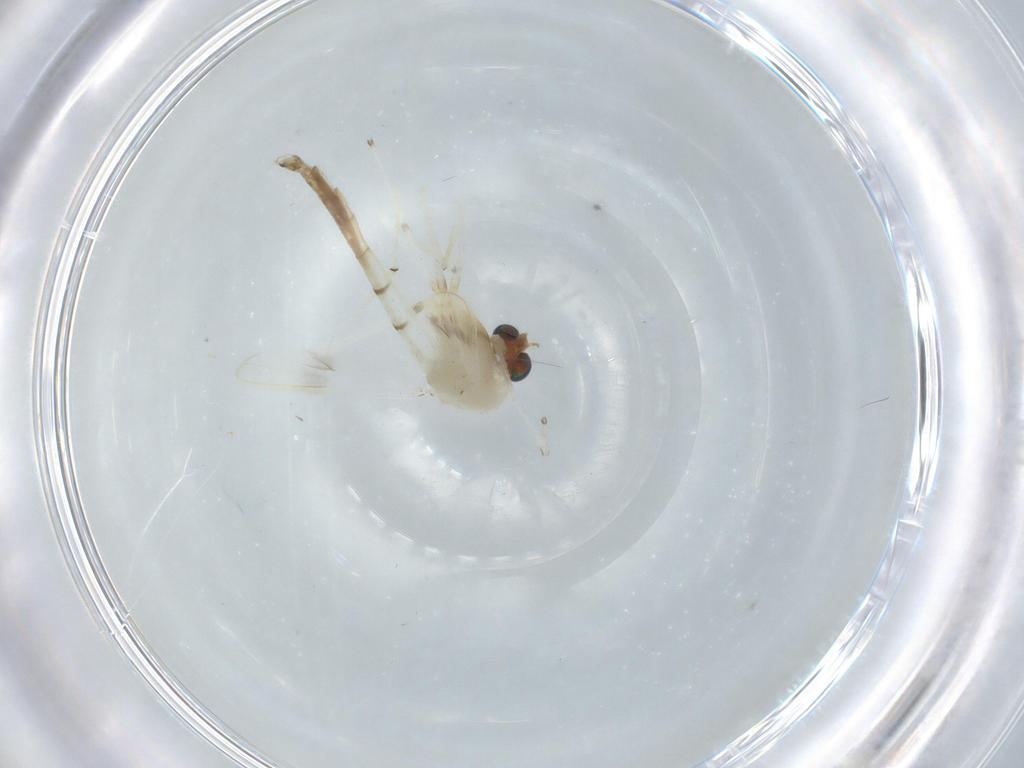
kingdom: Animalia
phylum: Arthropoda
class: Insecta
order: Diptera
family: Chironomidae
